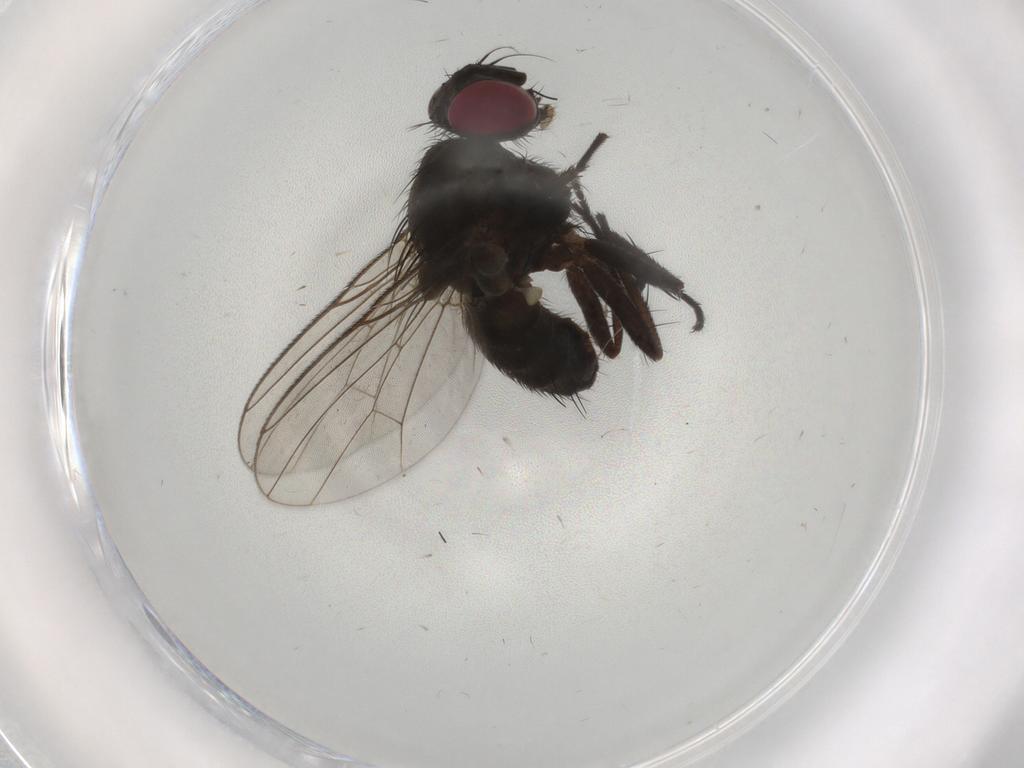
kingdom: Animalia
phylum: Arthropoda
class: Insecta
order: Diptera
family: Muscidae
